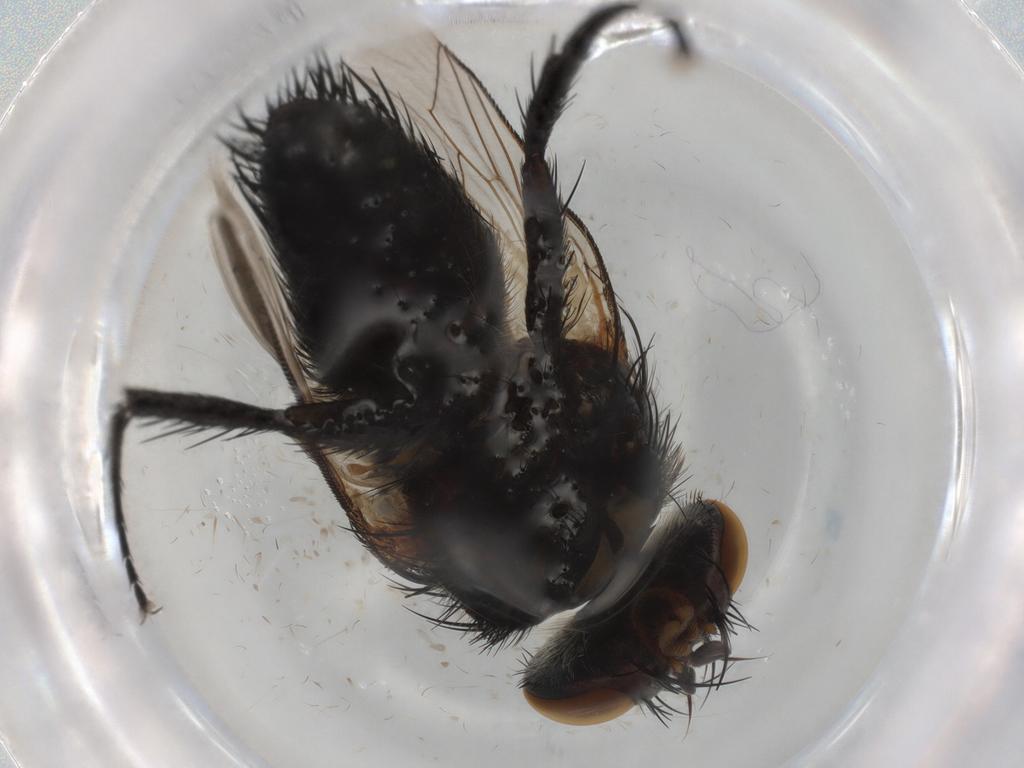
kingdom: Animalia
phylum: Arthropoda
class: Insecta
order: Diptera
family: Tachinidae
